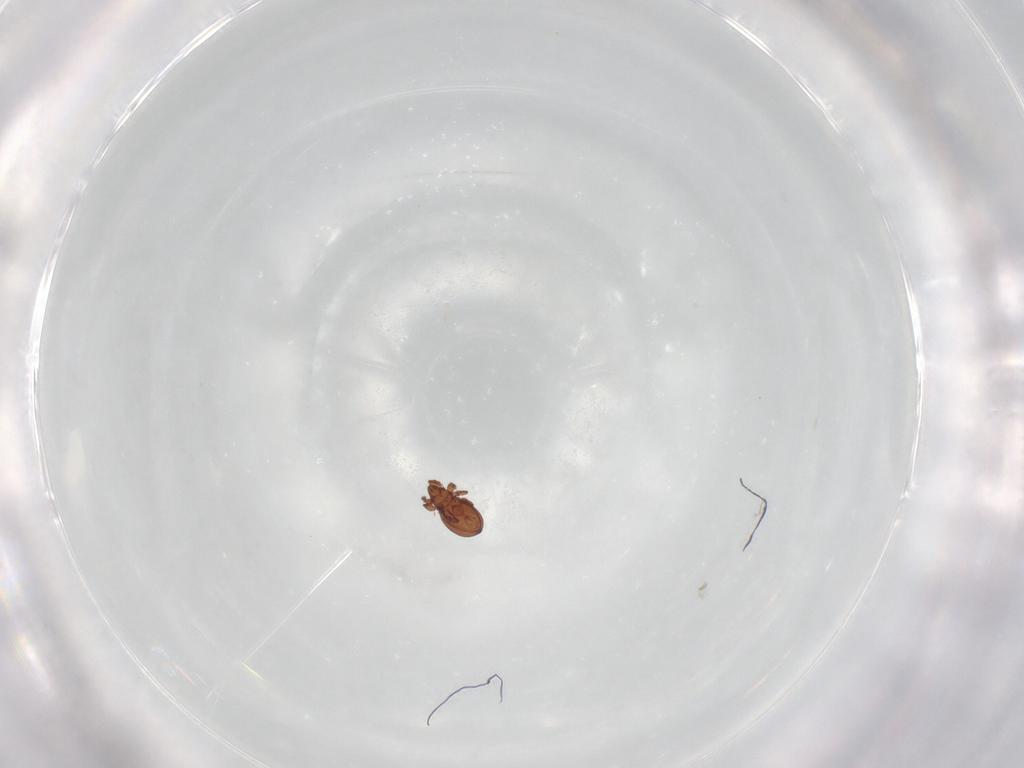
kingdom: Animalia
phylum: Arthropoda
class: Arachnida
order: Sarcoptiformes
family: Eremaeidae
